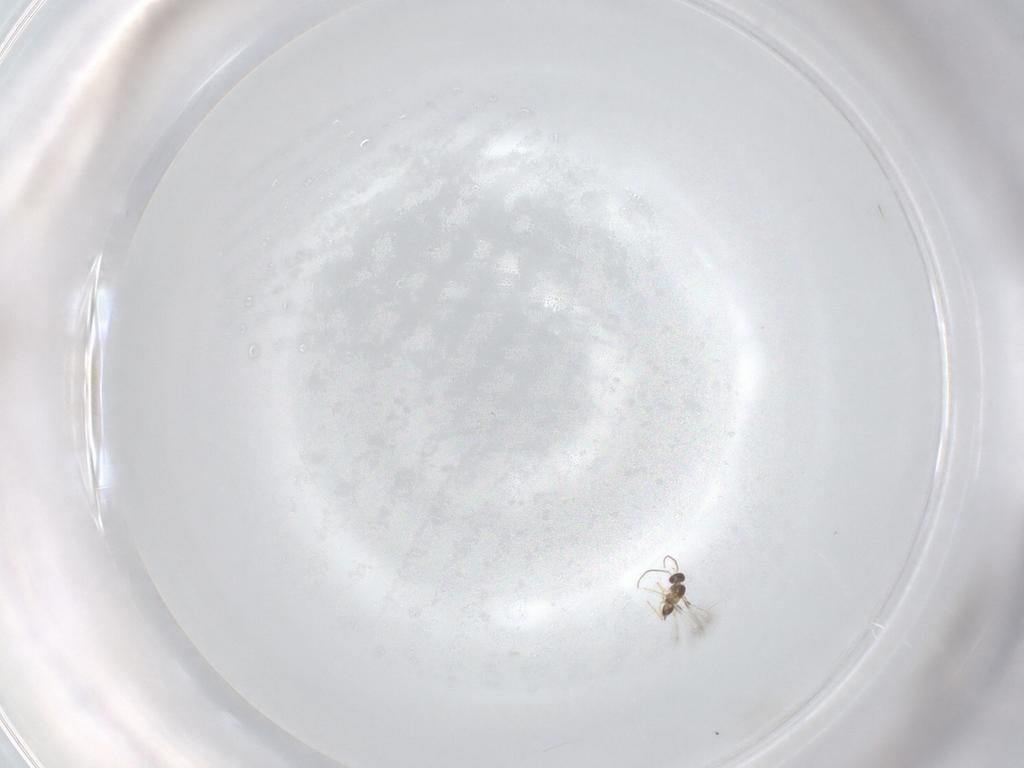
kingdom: Animalia
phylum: Arthropoda
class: Insecta
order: Hymenoptera
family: Mymaridae
